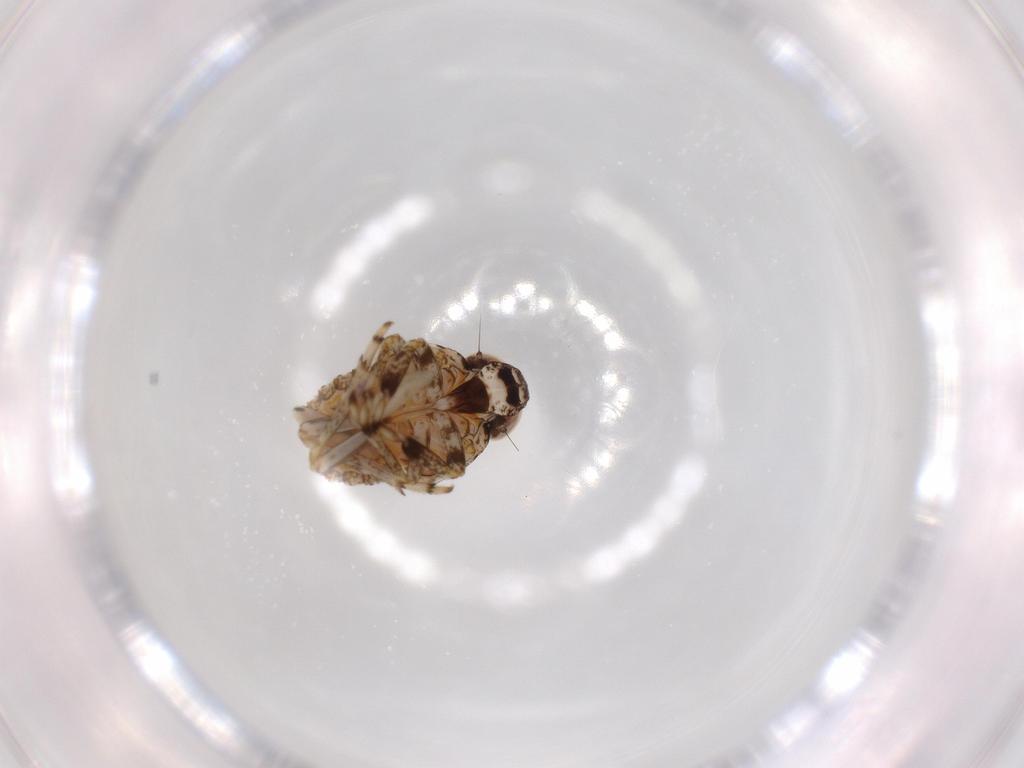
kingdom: Animalia
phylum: Arthropoda
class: Insecta
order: Hemiptera
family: Issidae
